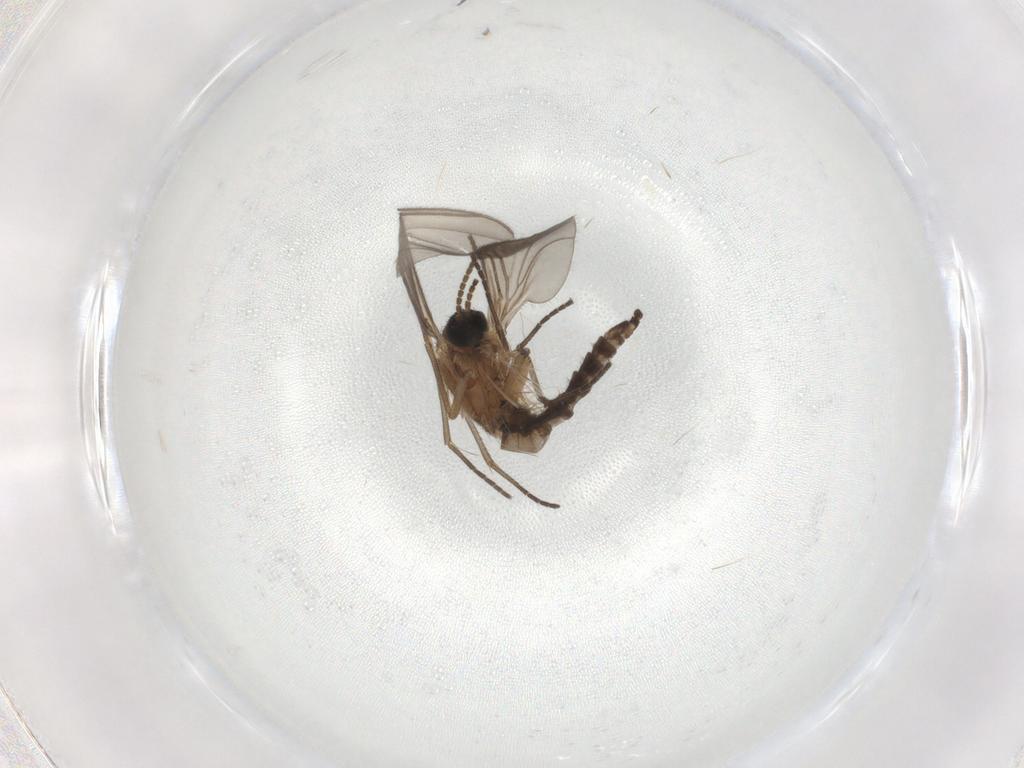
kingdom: Animalia
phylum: Arthropoda
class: Insecta
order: Diptera
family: Sciaridae
